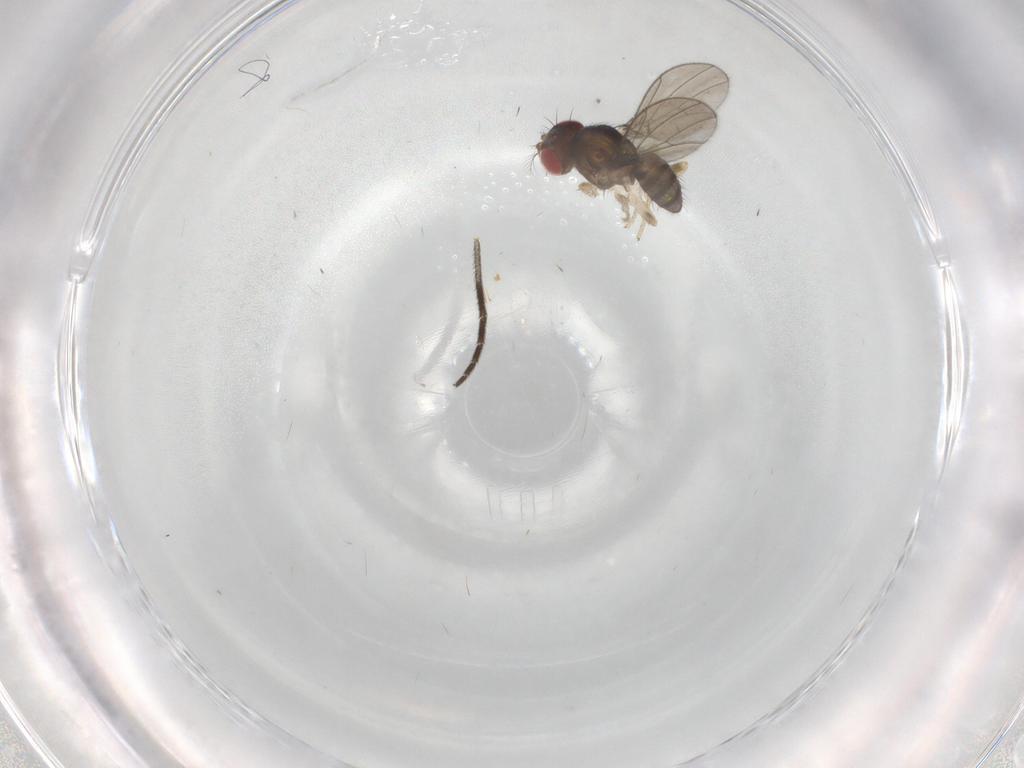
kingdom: Animalia
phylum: Arthropoda
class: Insecta
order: Diptera
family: Drosophilidae
